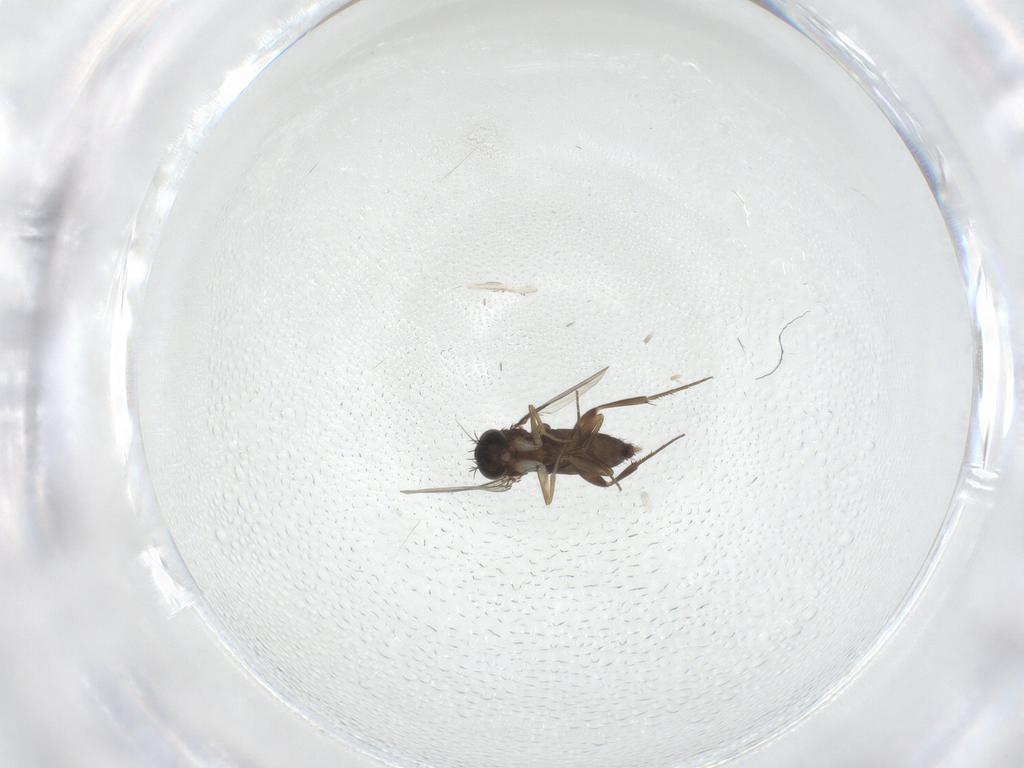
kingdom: Animalia
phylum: Arthropoda
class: Insecta
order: Diptera
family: Phoridae
